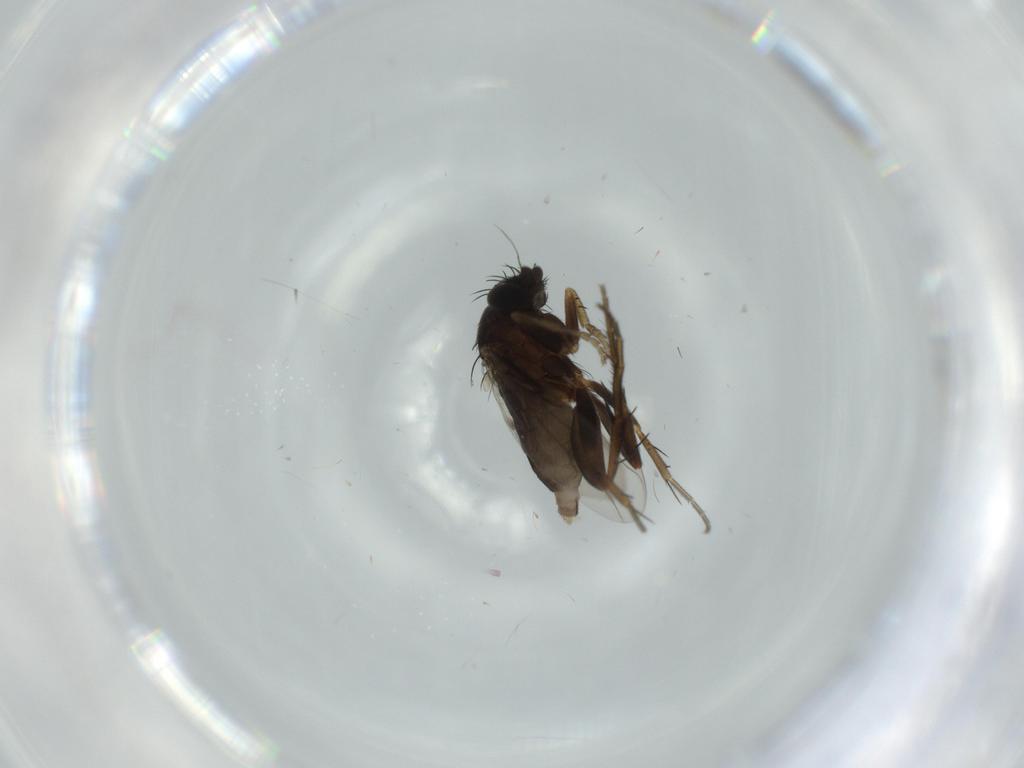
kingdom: Animalia
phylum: Arthropoda
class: Insecta
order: Diptera
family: Phoridae
